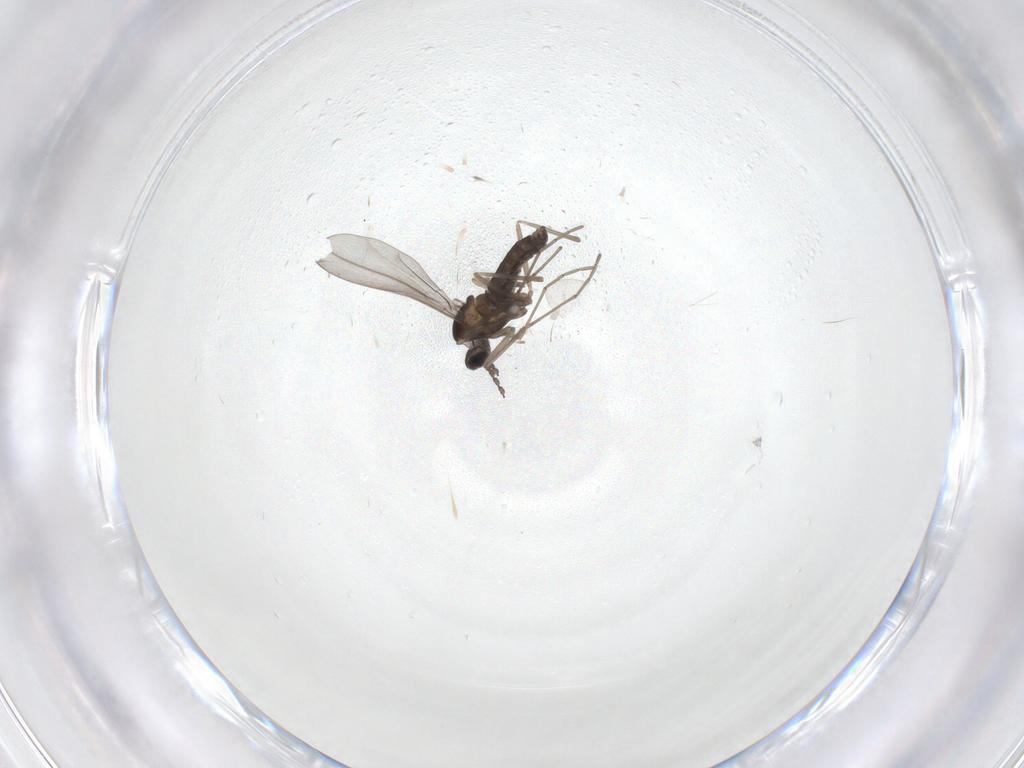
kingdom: Animalia
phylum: Arthropoda
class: Insecta
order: Diptera
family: Cecidomyiidae
